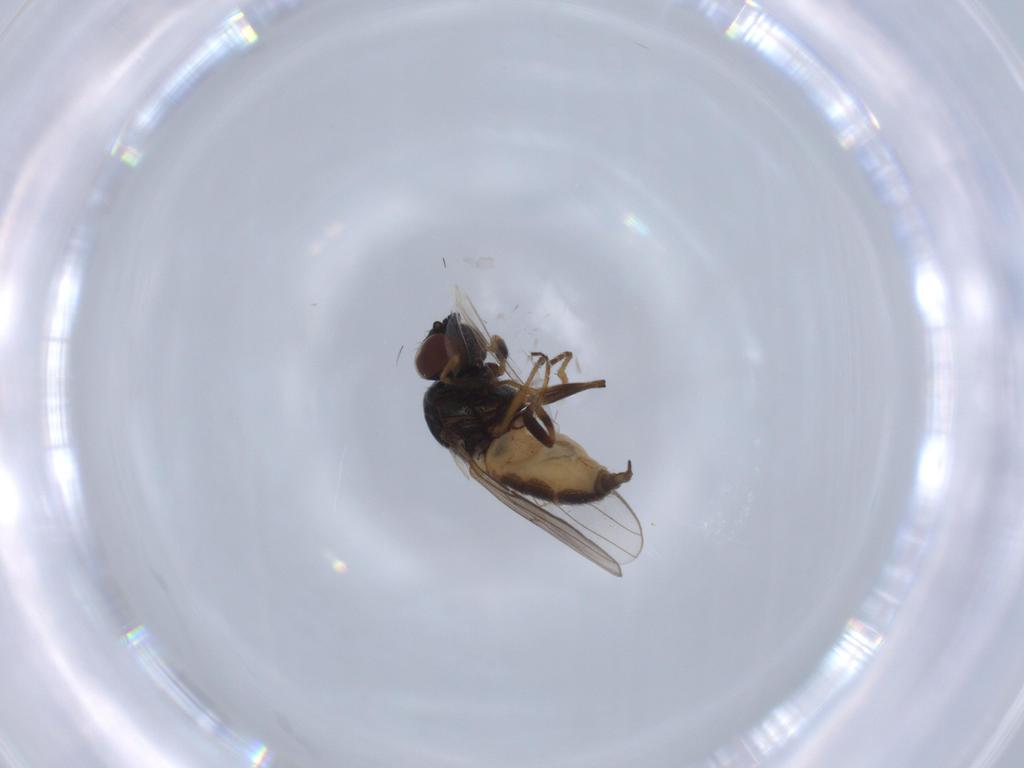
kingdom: Animalia
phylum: Arthropoda
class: Insecta
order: Diptera
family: Chloropidae
